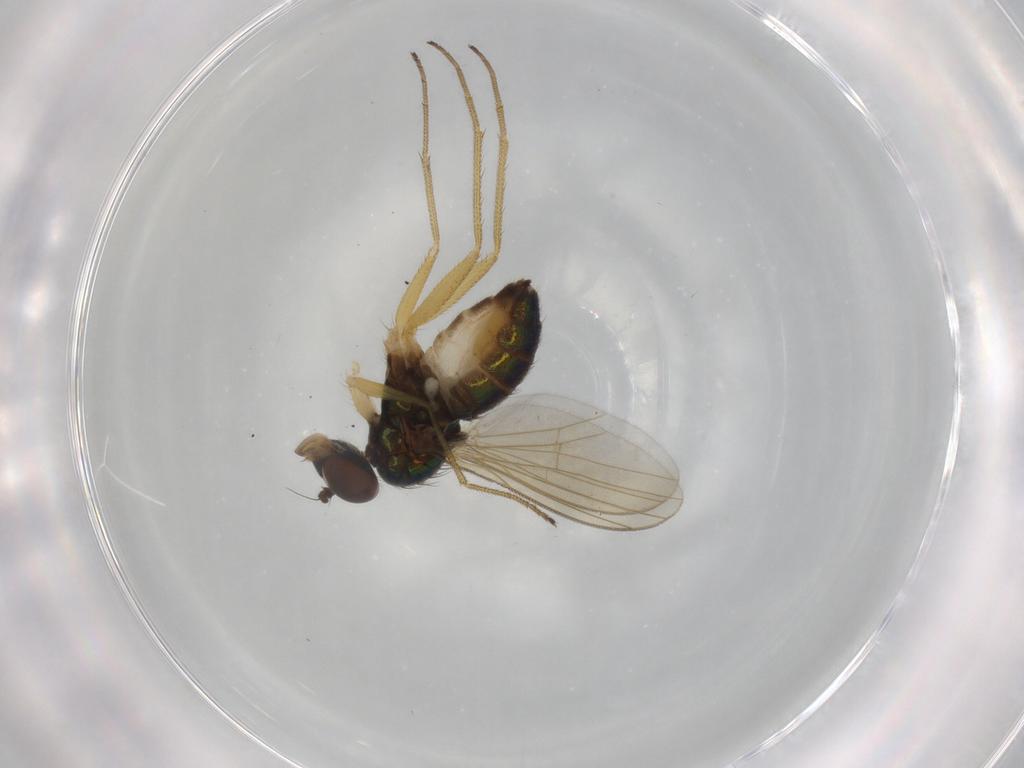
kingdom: Animalia
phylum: Arthropoda
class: Insecta
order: Diptera
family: Dolichopodidae
